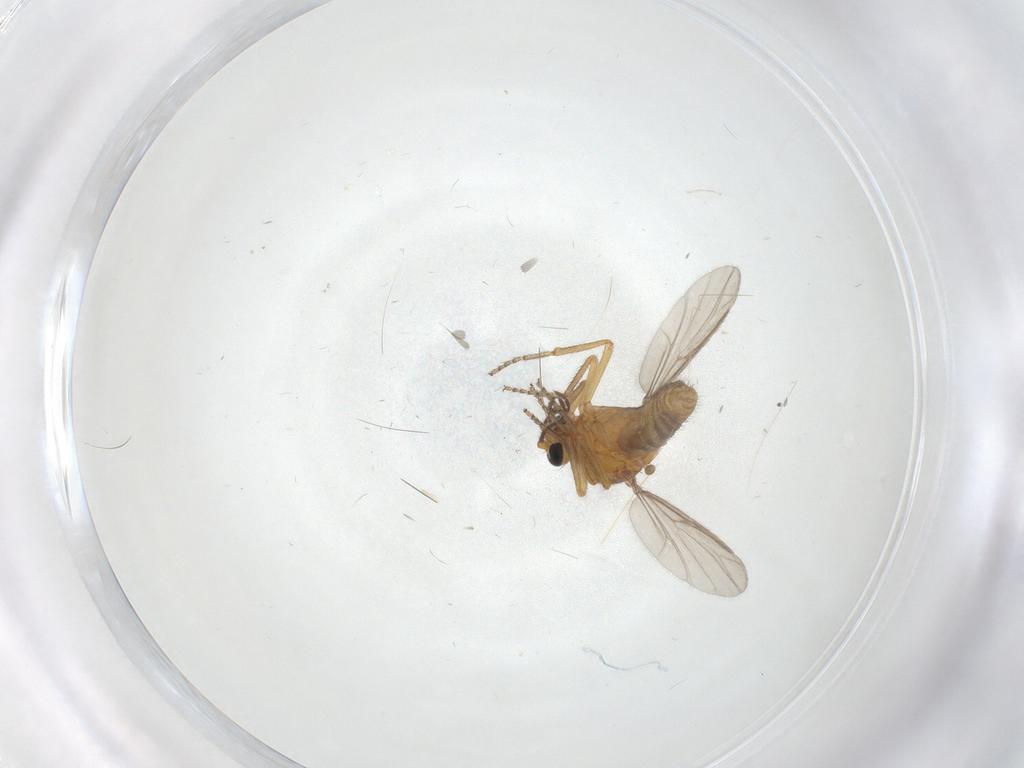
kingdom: Animalia
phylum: Arthropoda
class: Insecta
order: Diptera
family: Ceratopogonidae
